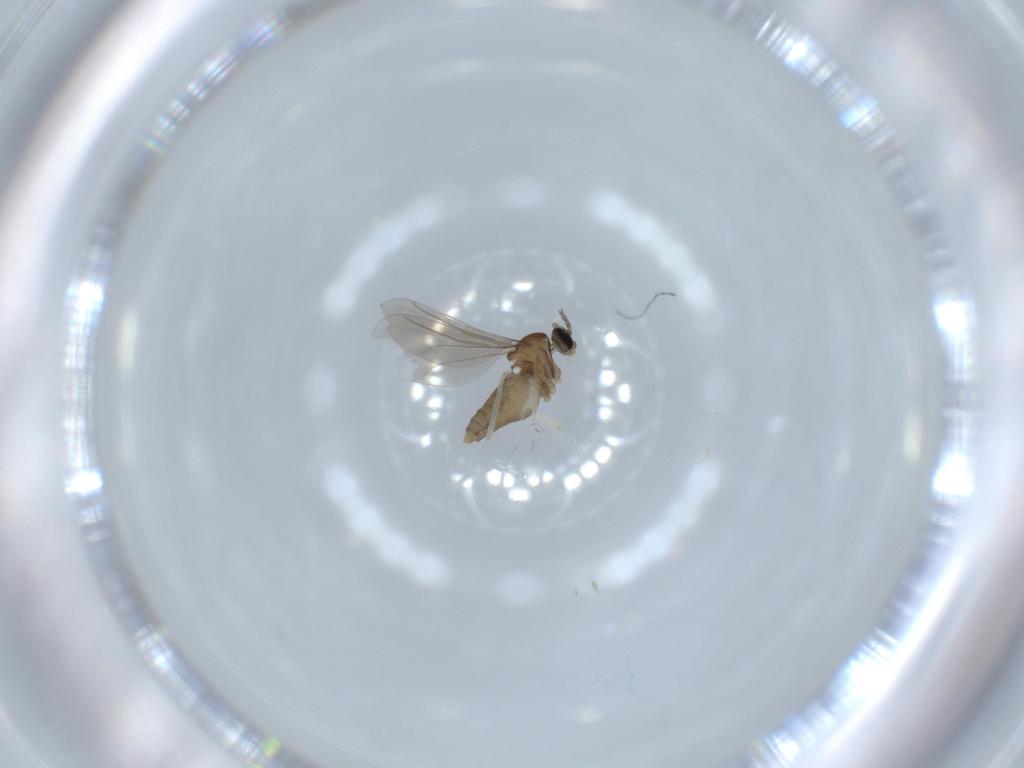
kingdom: Animalia
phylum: Arthropoda
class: Insecta
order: Diptera
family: Cecidomyiidae
